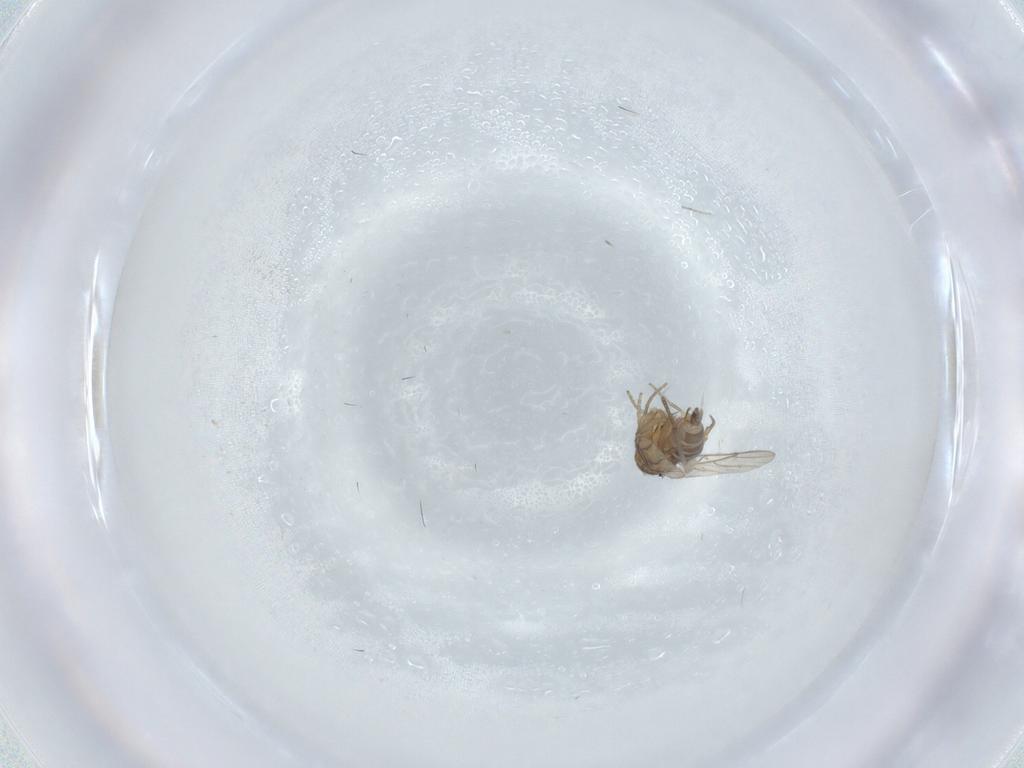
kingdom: Animalia
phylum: Arthropoda
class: Insecta
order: Diptera
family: Phoridae
